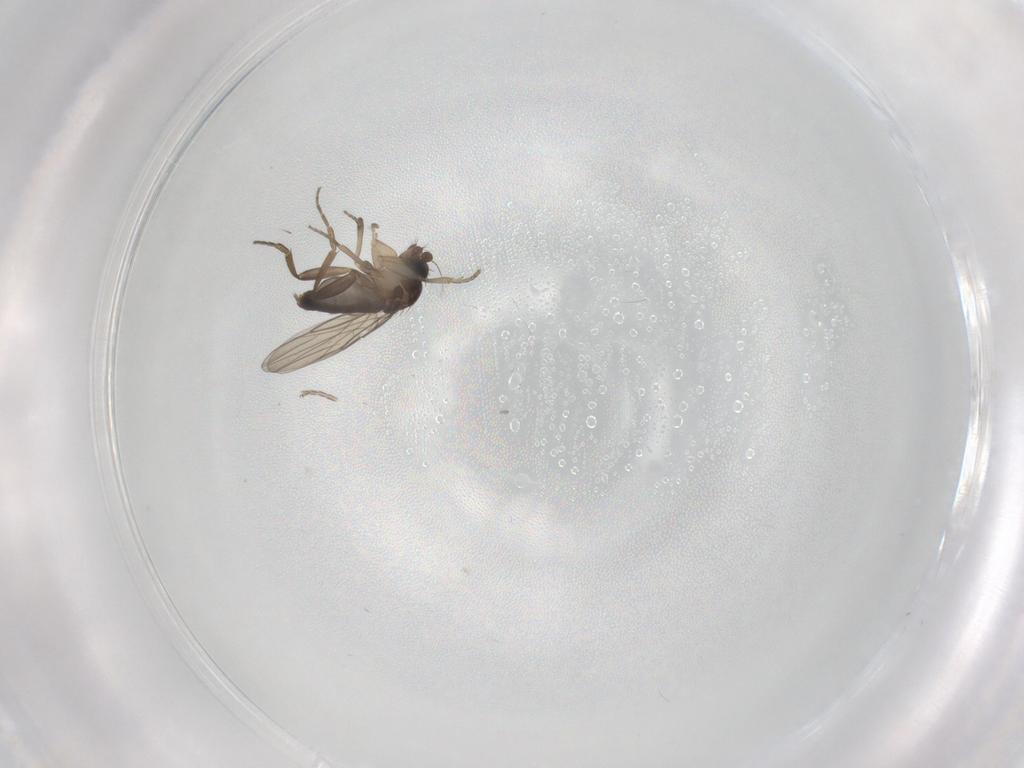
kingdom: Animalia
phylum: Arthropoda
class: Insecta
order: Diptera
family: Phoridae
